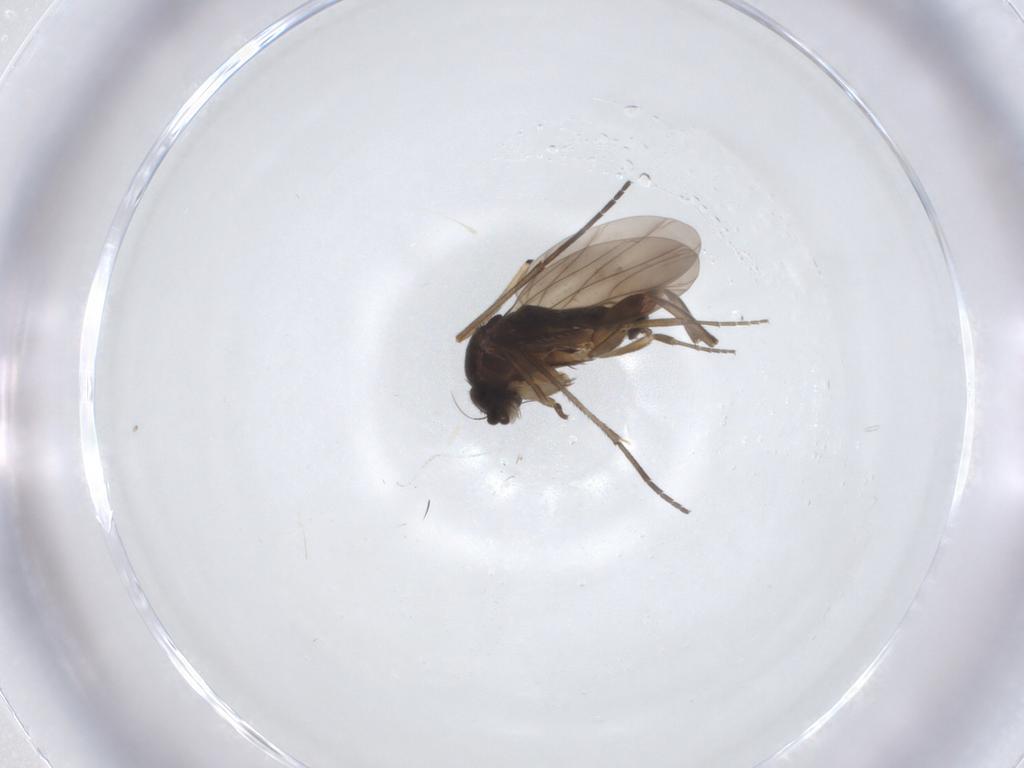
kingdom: Animalia
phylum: Arthropoda
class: Insecta
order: Diptera
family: Phoridae
